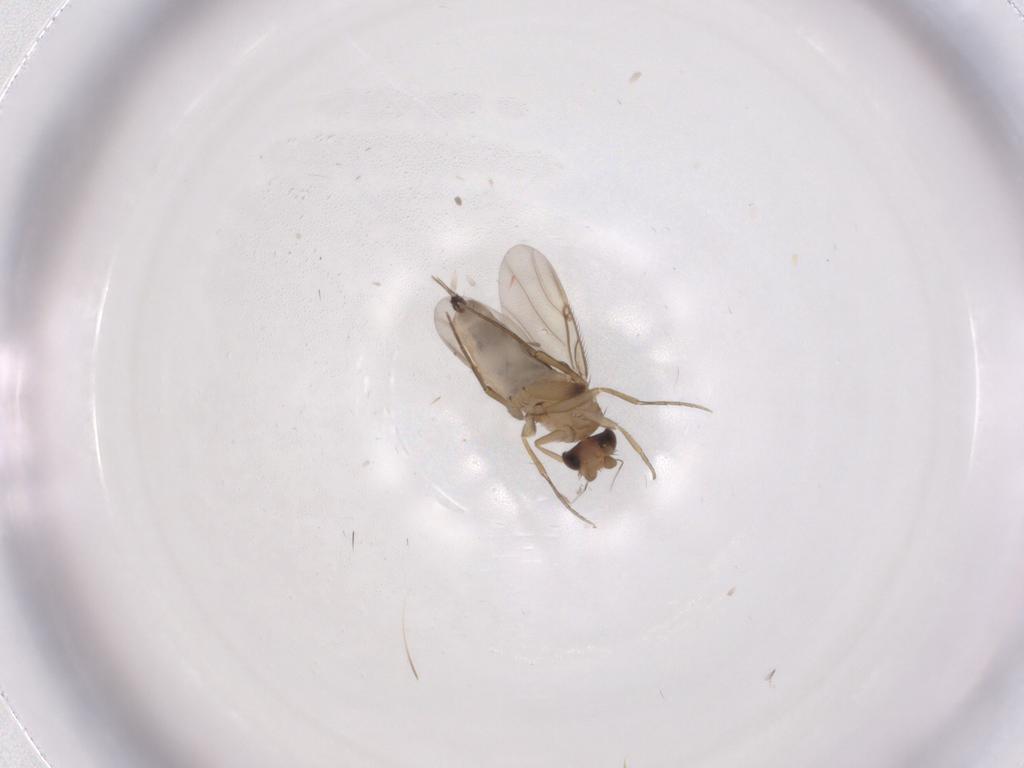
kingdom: Animalia
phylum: Arthropoda
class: Insecta
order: Diptera
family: Phoridae
